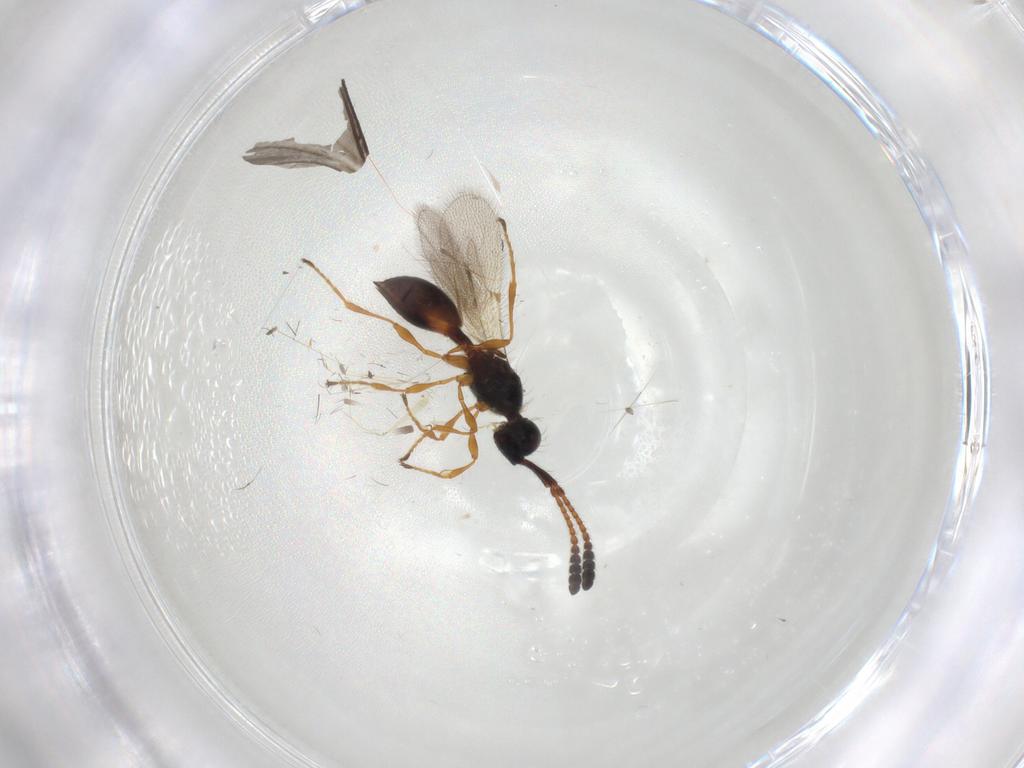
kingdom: Animalia
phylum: Arthropoda
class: Insecta
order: Hymenoptera
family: Diapriidae
